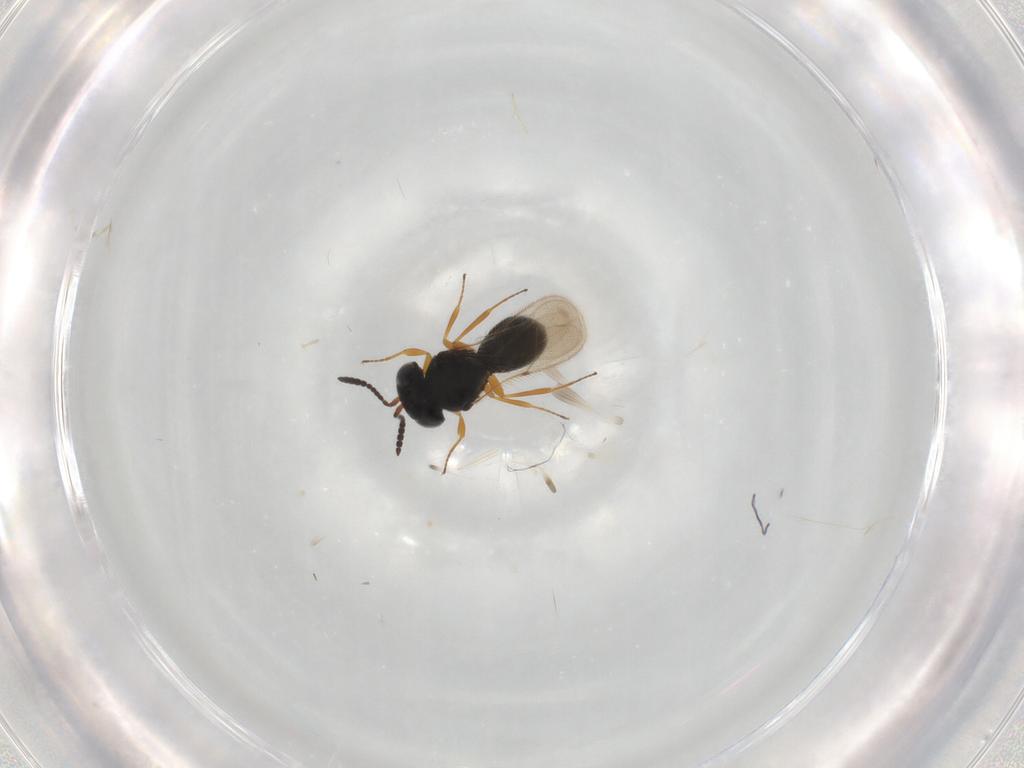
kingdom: Animalia
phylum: Arthropoda
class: Insecta
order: Hymenoptera
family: Scelionidae
